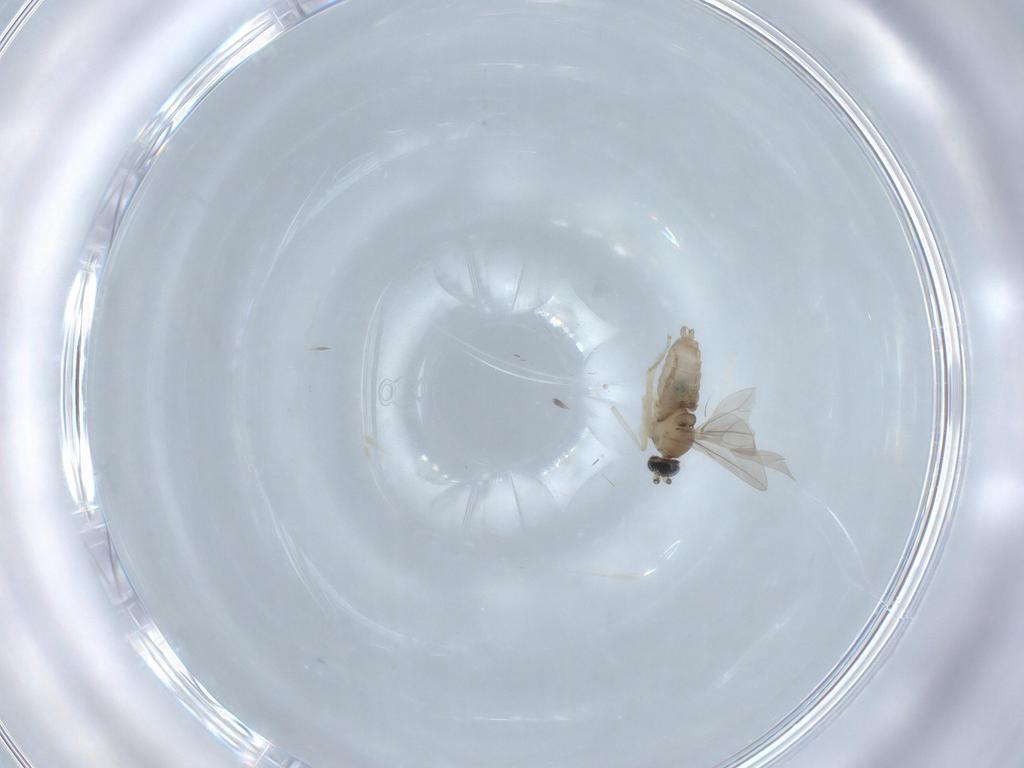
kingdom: Animalia
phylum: Arthropoda
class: Insecta
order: Diptera
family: Cecidomyiidae
